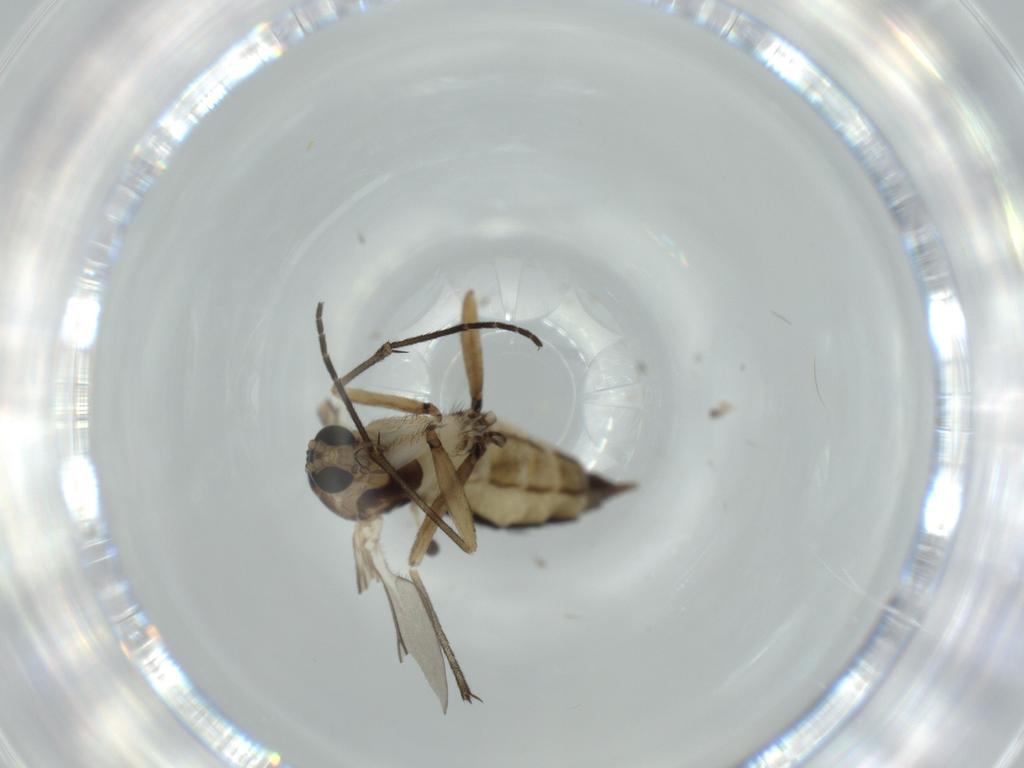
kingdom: Animalia
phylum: Arthropoda
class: Insecta
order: Diptera
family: Sciaridae
